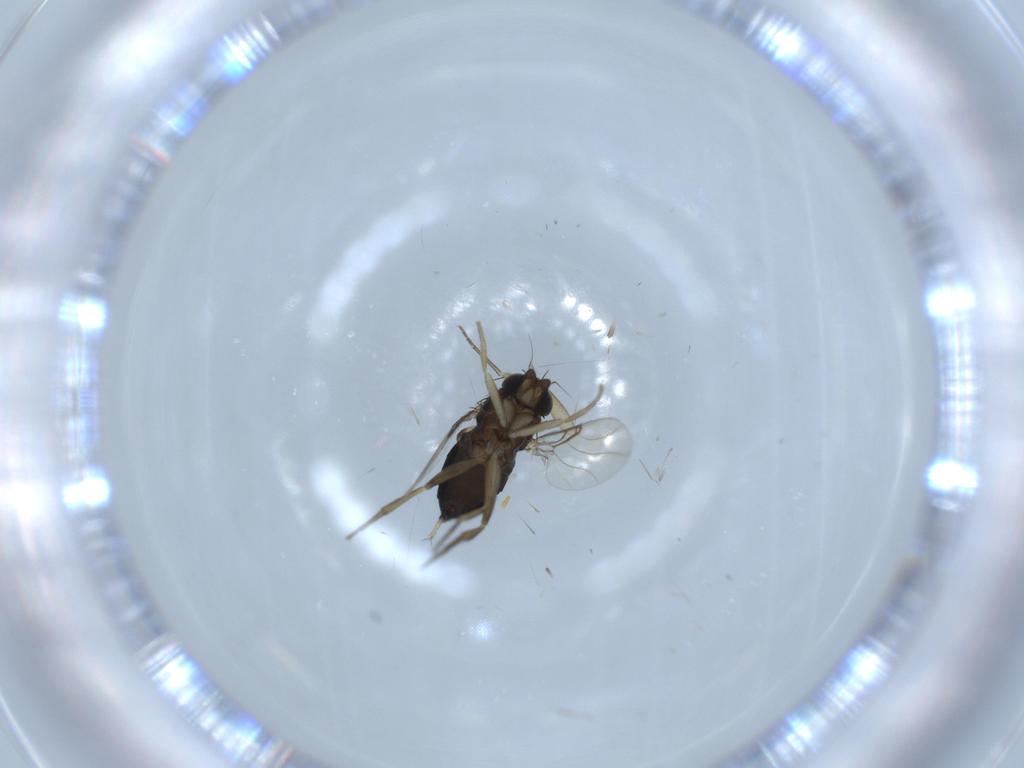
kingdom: Animalia
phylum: Arthropoda
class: Insecta
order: Diptera
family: Phoridae
